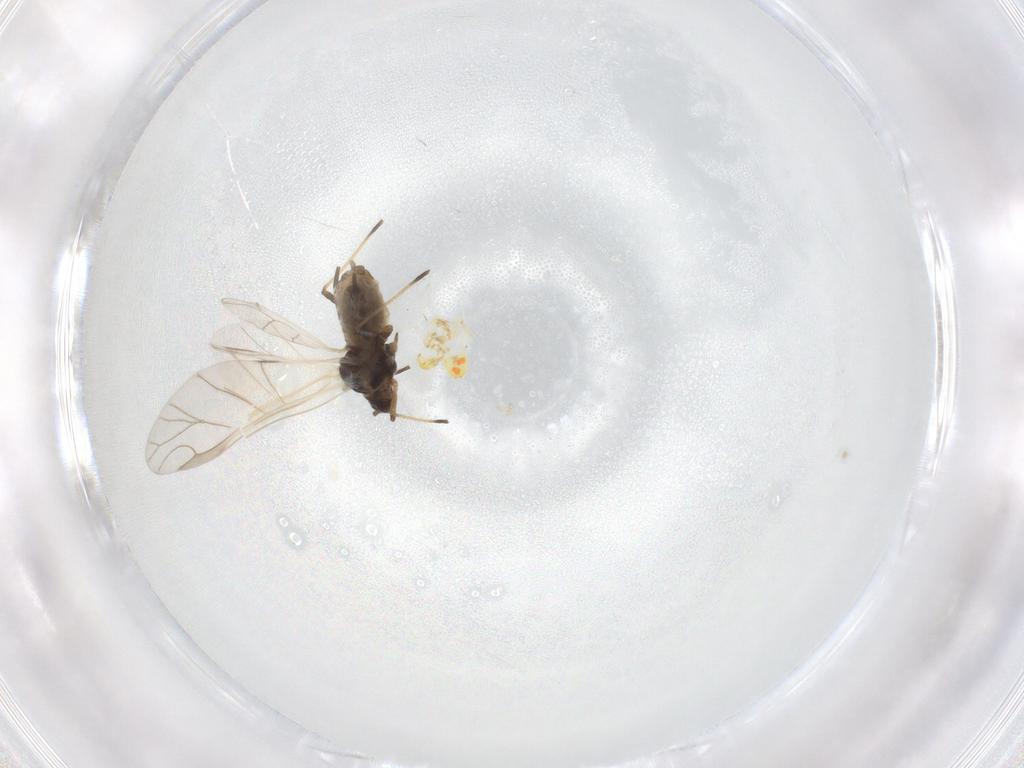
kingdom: Animalia
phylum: Arthropoda
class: Insecta
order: Hemiptera
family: Aphididae
